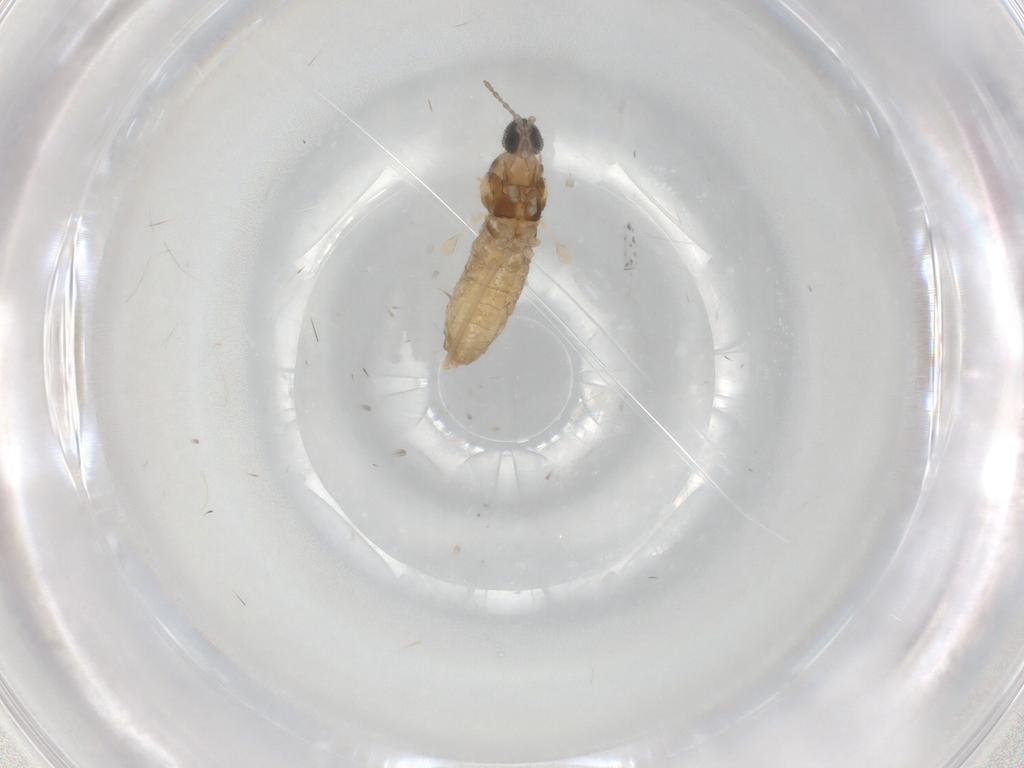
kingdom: Animalia
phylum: Arthropoda
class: Insecta
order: Diptera
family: Cecidomyiidae
